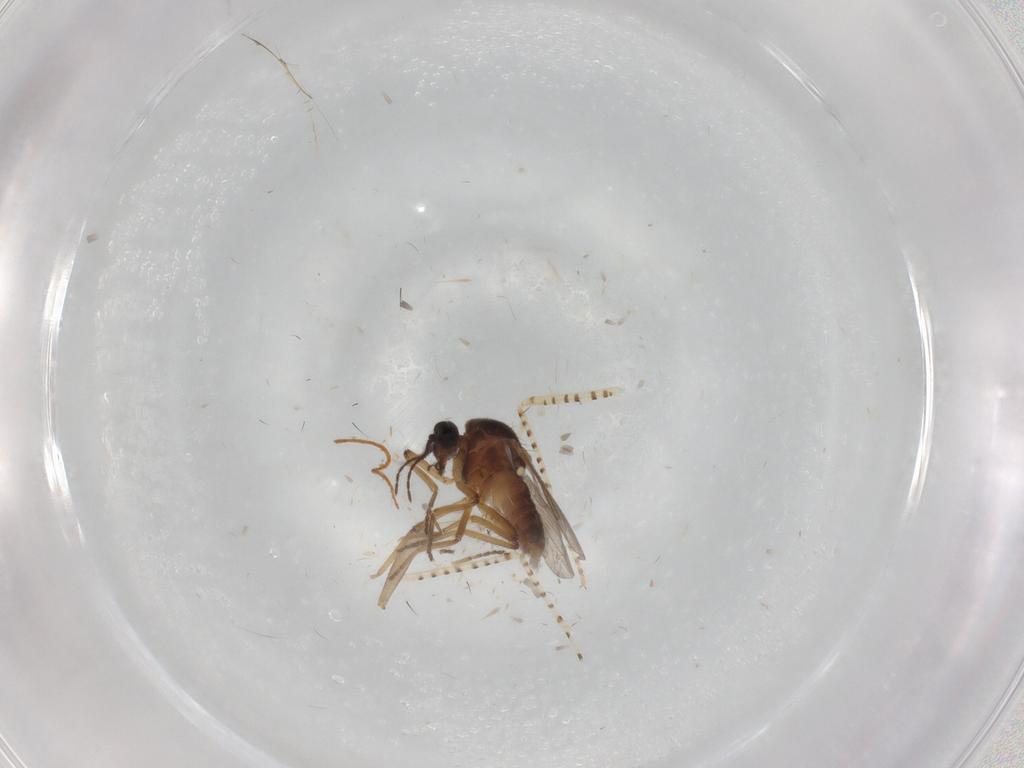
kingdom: Animalia
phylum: Arthropoda
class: Insecta
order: Diptera
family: Ceratopogonidae
